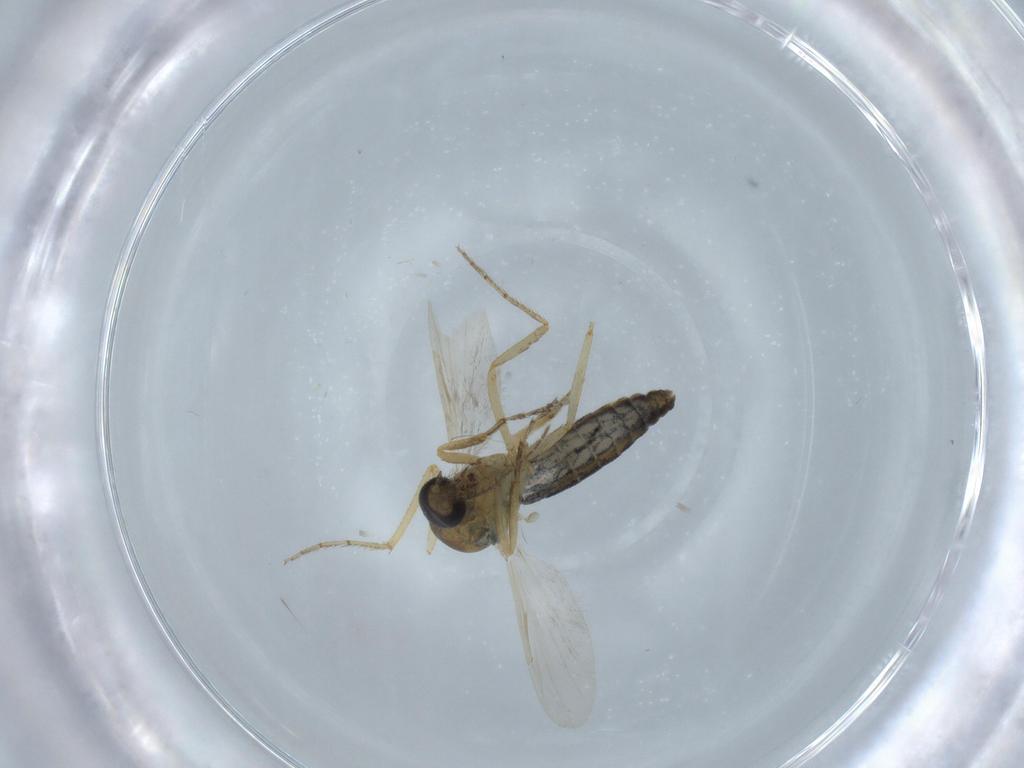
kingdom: Animalia
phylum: Arthropoda
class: Insecta
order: Diptera
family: Ceratopogonidae
